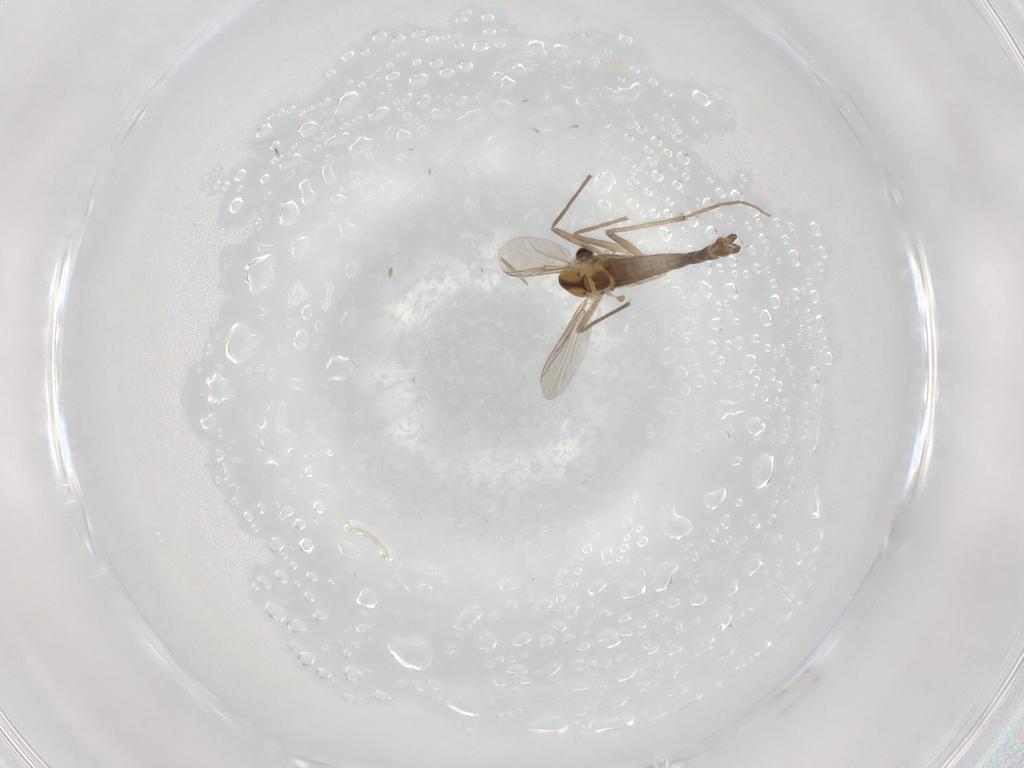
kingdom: Animalia
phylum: Arthropoda
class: Insecta
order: Diptera
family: Chironomidae
